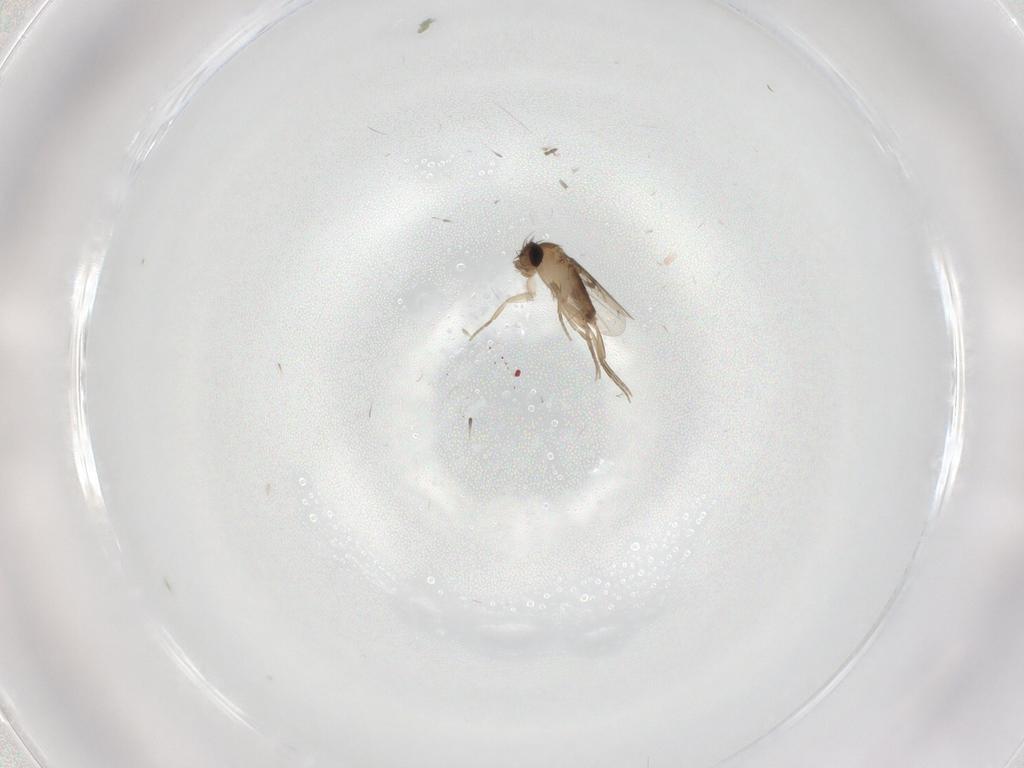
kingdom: Animalia
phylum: Arthropoda
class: Insecta
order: Diptera
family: Phoridae
